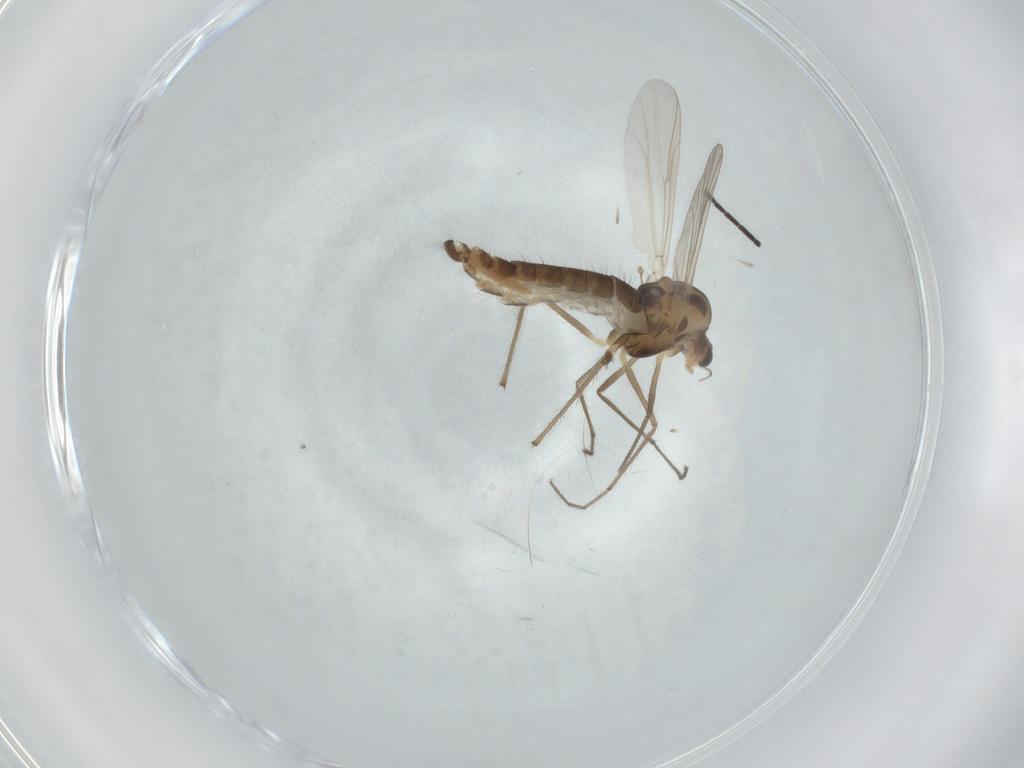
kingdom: Animalia
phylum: Arthropoda
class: Insecta
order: Diptera
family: Chironomidae
